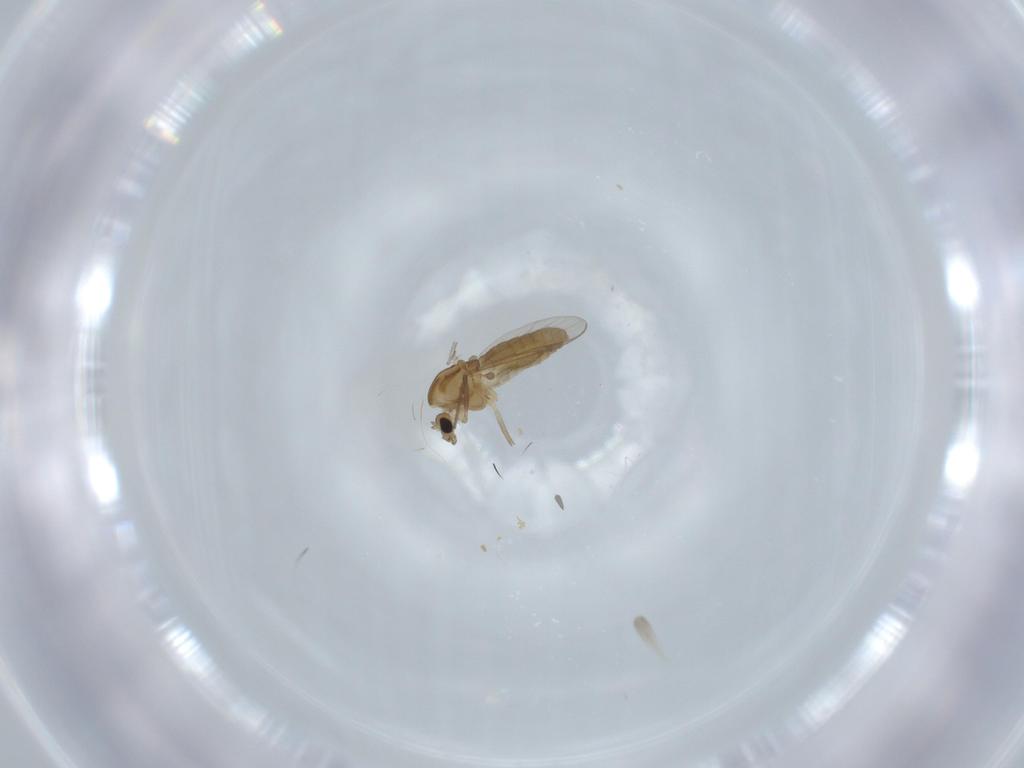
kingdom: Animalia
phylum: Arthropoda
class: Insecta
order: Diptera
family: Chironomidae
